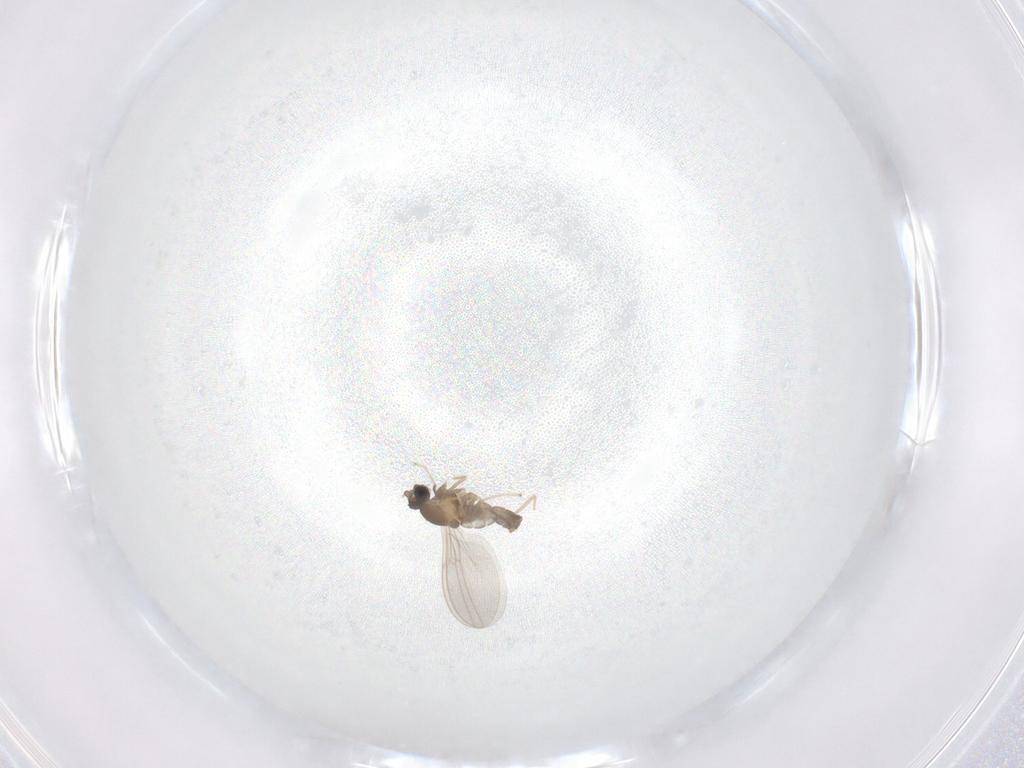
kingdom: Animalia
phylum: Arthropoda
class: Insecta
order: Diptera
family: Cecidomyiidae
